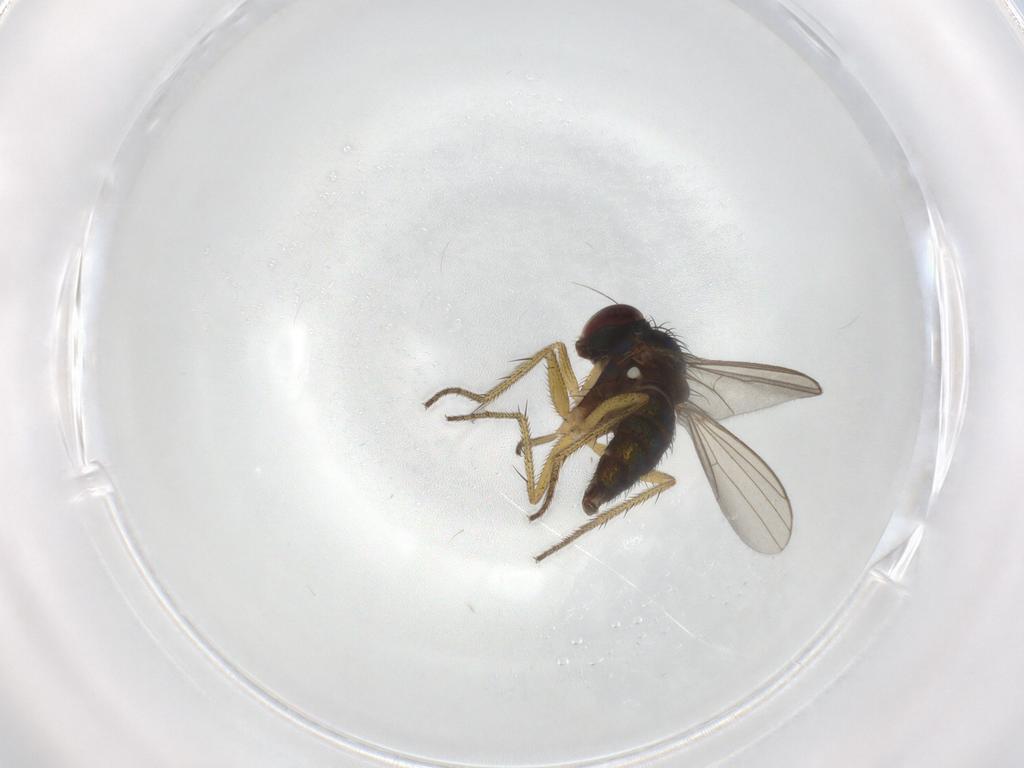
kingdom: Animalia
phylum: Arthropoda
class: Insecta
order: Diptera
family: Dolichopodidae
